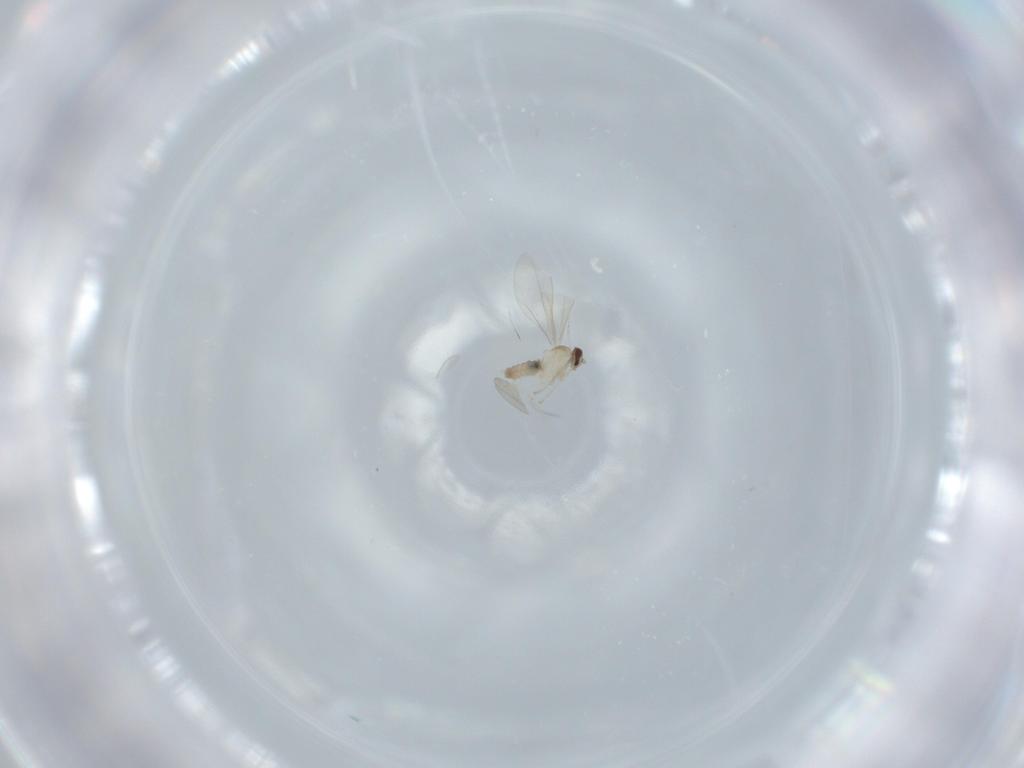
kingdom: Animalia
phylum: Arthropoda
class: Insecta
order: Diptera
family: Cecidomyiidae
